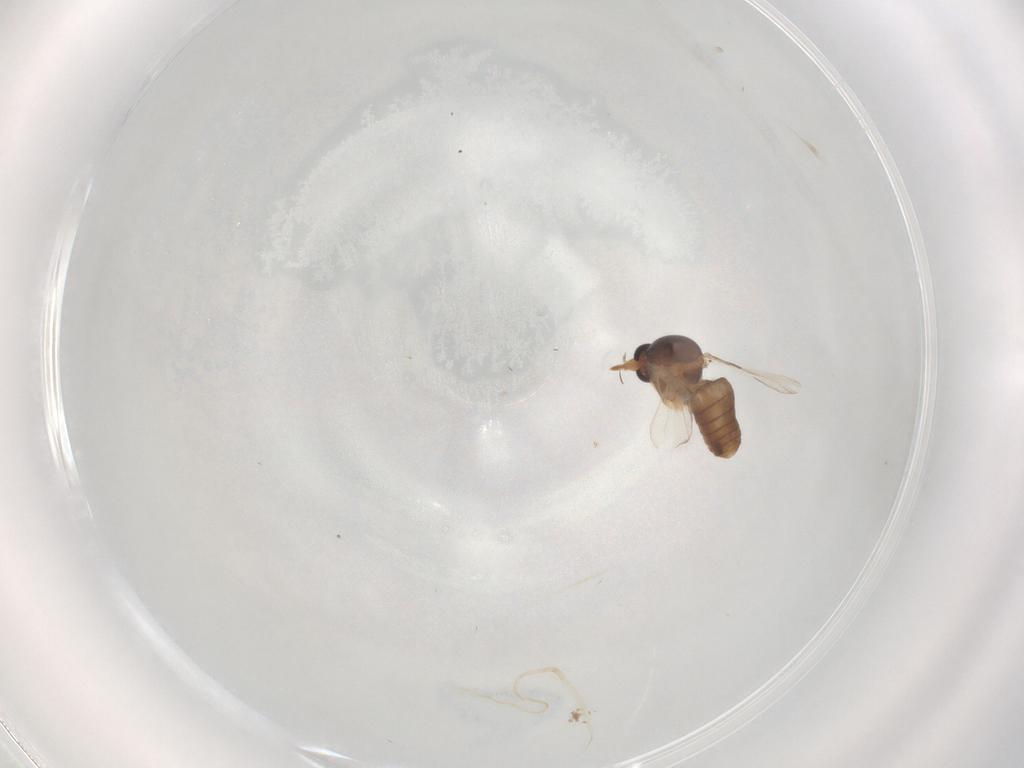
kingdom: Animalia
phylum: Arthropoda
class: Insecta
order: Diptera
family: Ceratopogonidae
